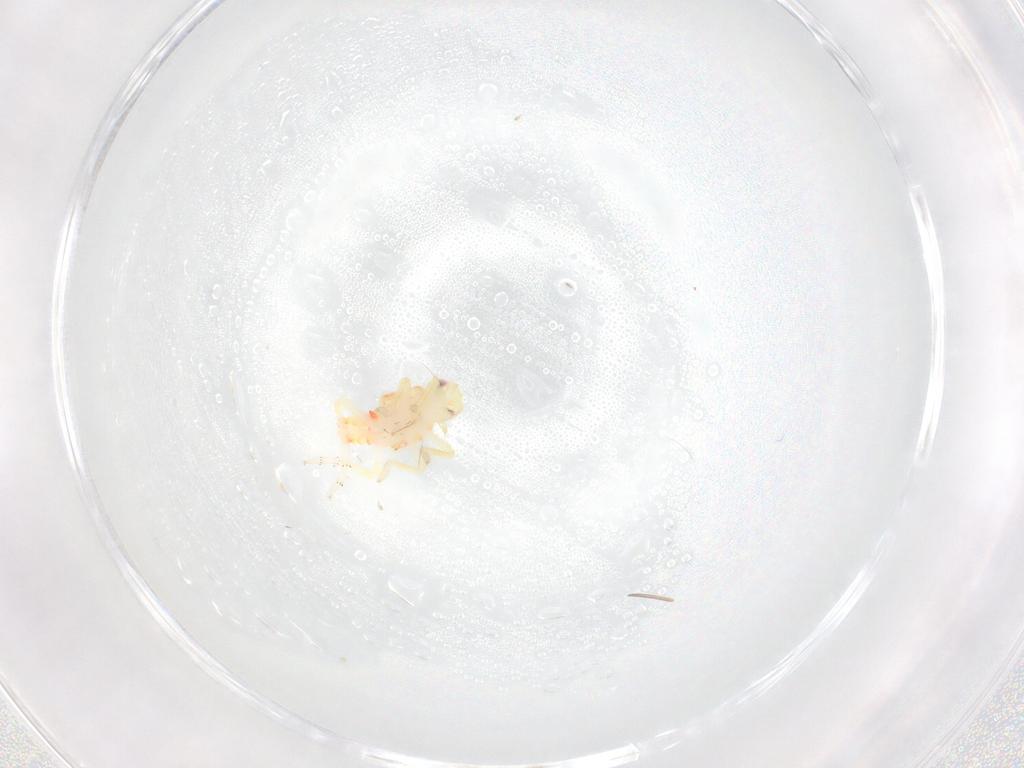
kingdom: Animalia
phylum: Arthropoda
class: Insecta
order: Hemiptera
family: Tropiduchidae
